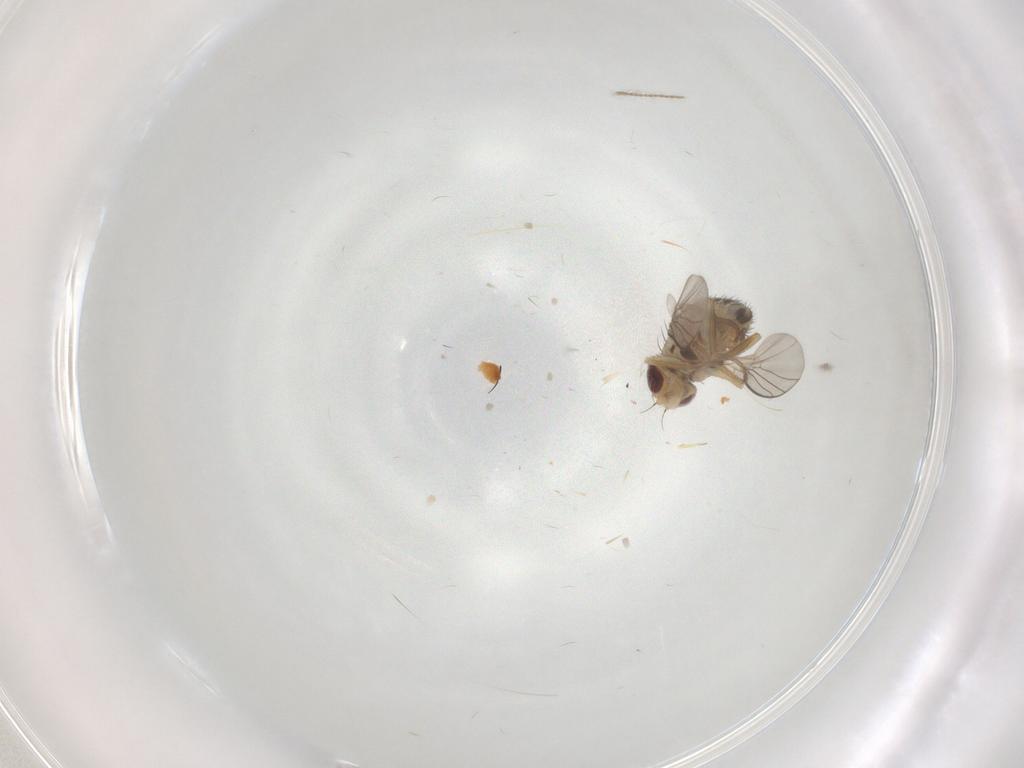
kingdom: Animalia
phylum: Arthropoda
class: Insecta
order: Diptera
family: Agromyzidae
